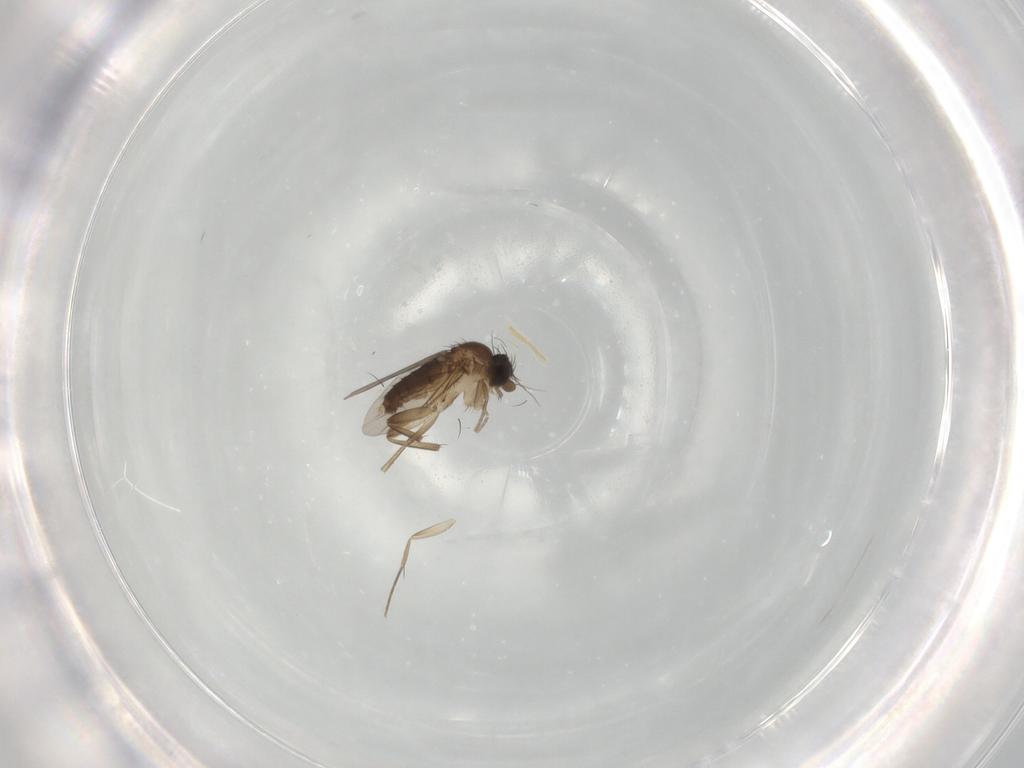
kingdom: Animalia
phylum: Arthropoda
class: Insecta
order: Diptera
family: Phoridae
